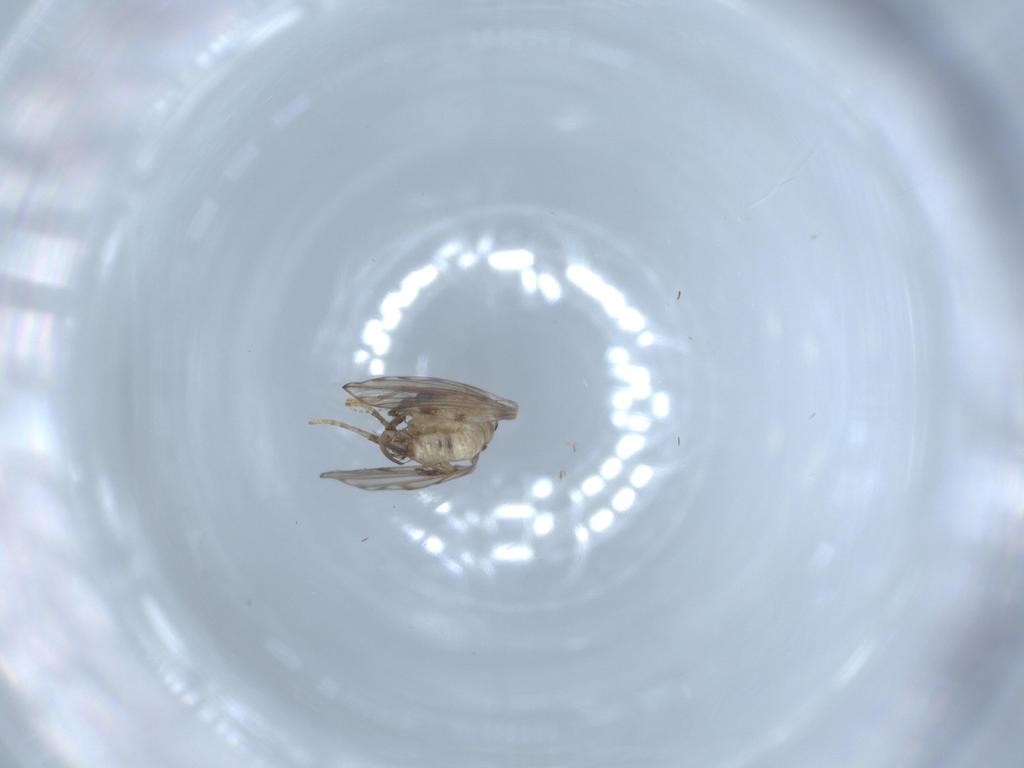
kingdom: Animalia
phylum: Arthropoda
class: Insecta
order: Diptera
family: Psychodidae
